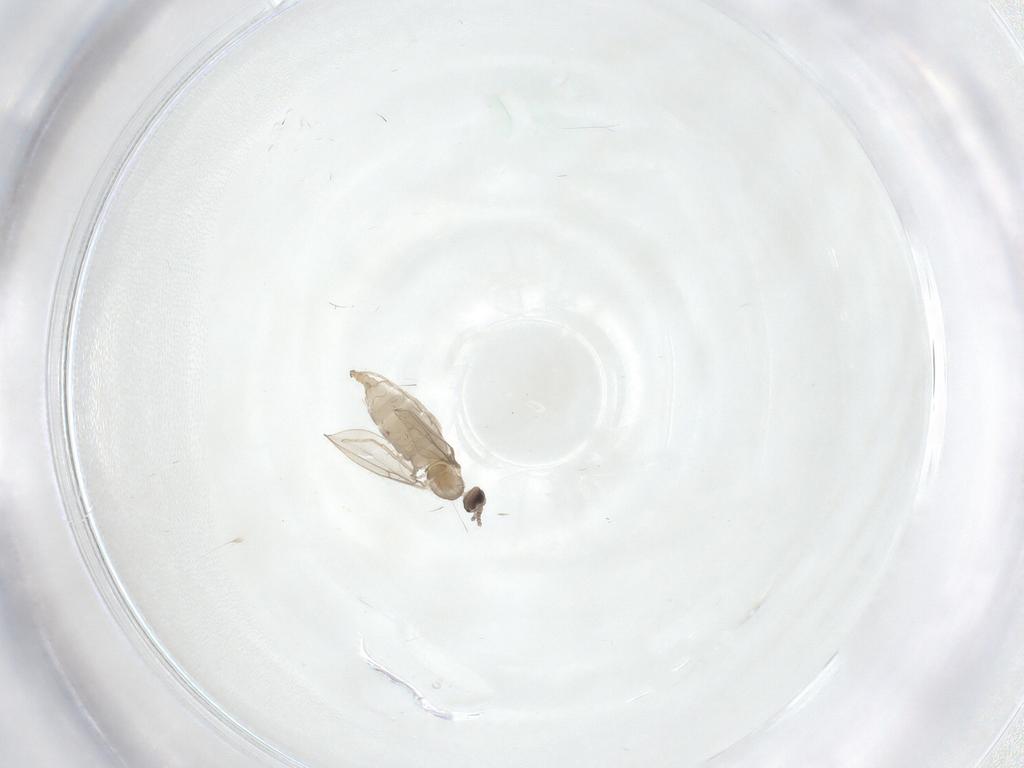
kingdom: Animalia
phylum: Arthropoda
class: Insecta
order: Diptera
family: Cecidomyiidae
